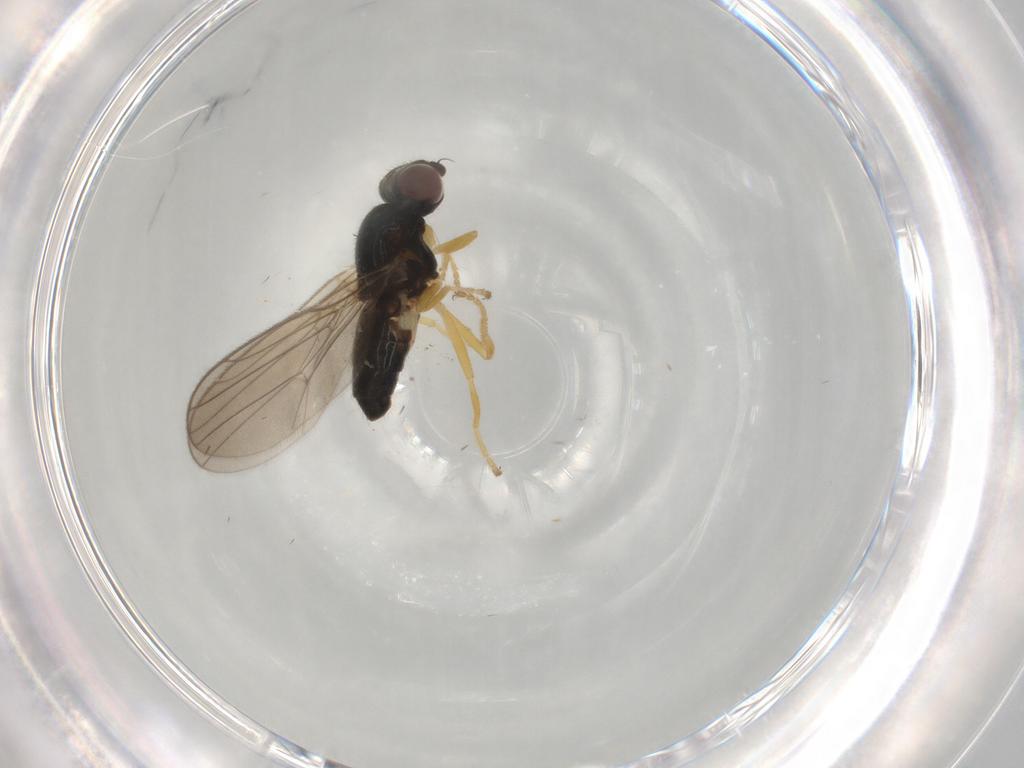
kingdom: Animalia
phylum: Arthropoda
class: Insecta
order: Diptera
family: Chloropidae
